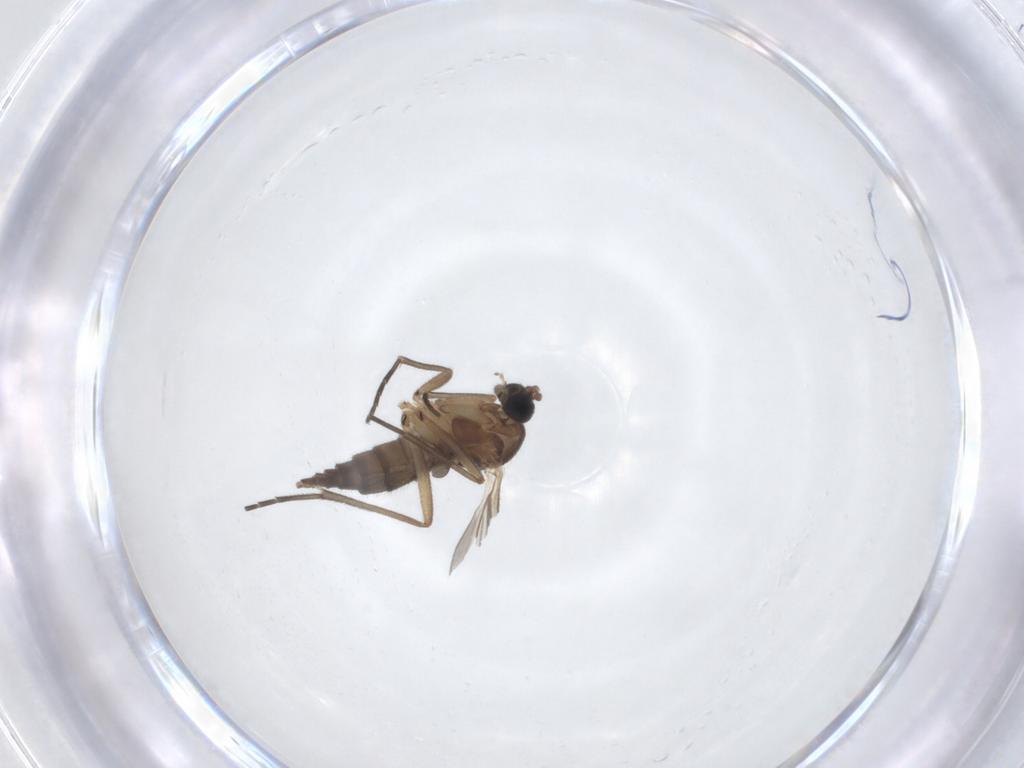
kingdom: Animalia
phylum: Arthropoda
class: Insecta
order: Diptera
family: Sciaridae
